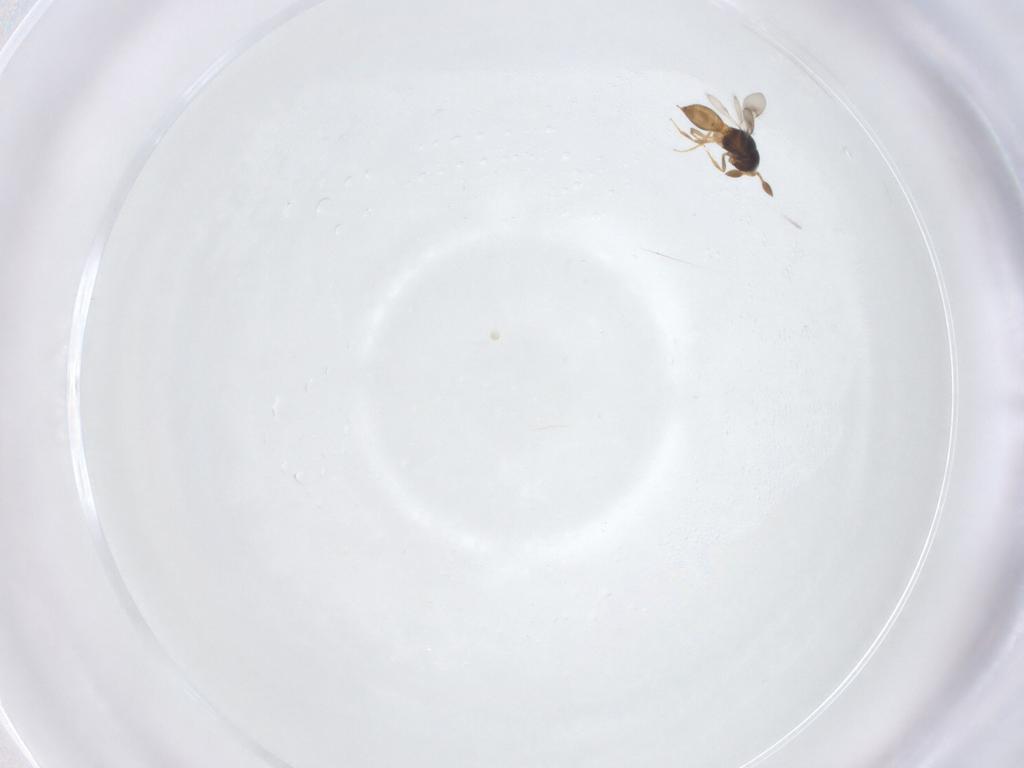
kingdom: Animalia
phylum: Arthropoda
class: Insecta
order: Hymenoptera
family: Scelionidae
